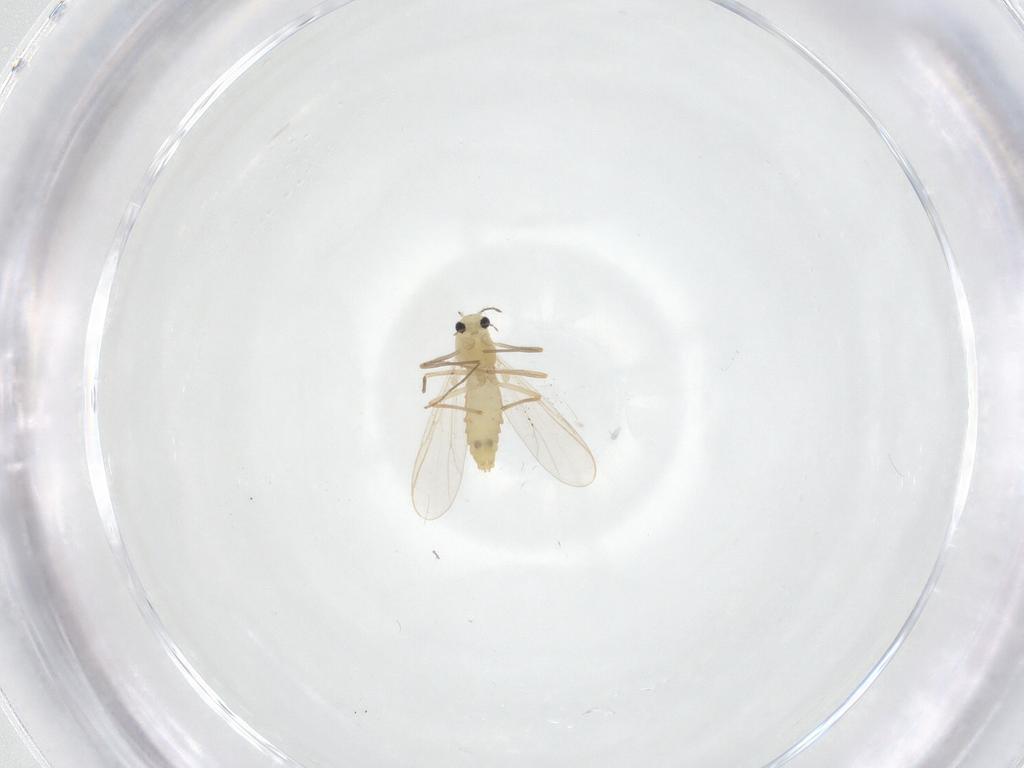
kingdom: Animalia
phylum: Arthropoda
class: Insecta
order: Diptera
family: Chironomidae
